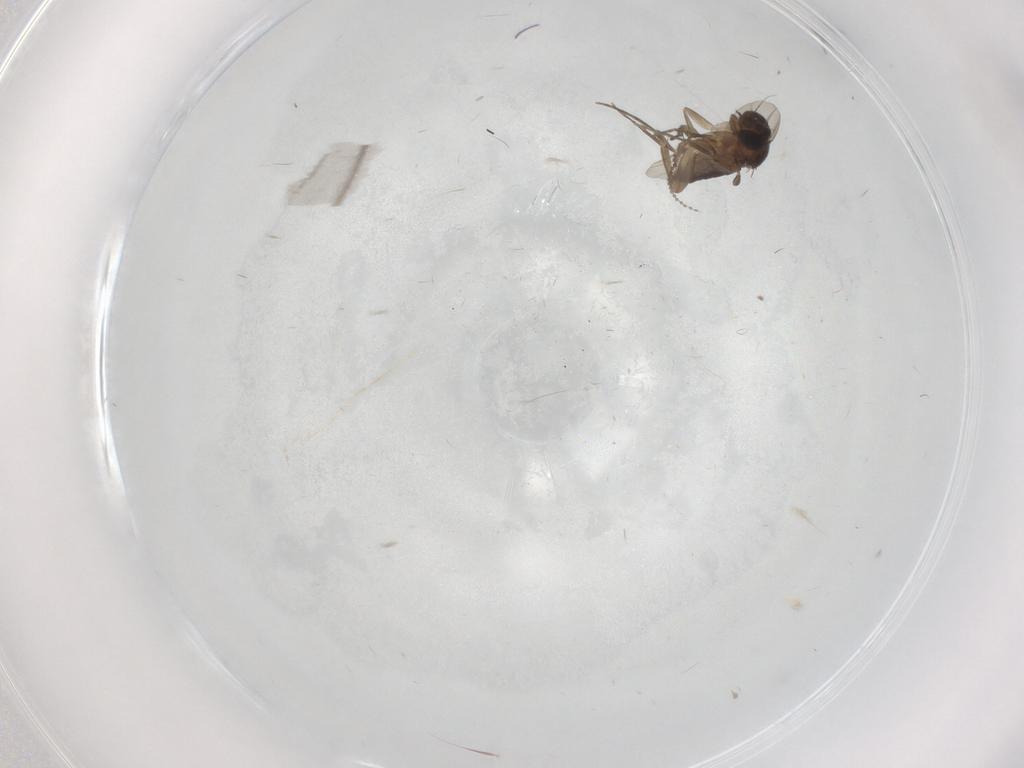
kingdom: Animalia
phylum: Arthropoda
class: Insecta
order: Diptera
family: Phoridae
